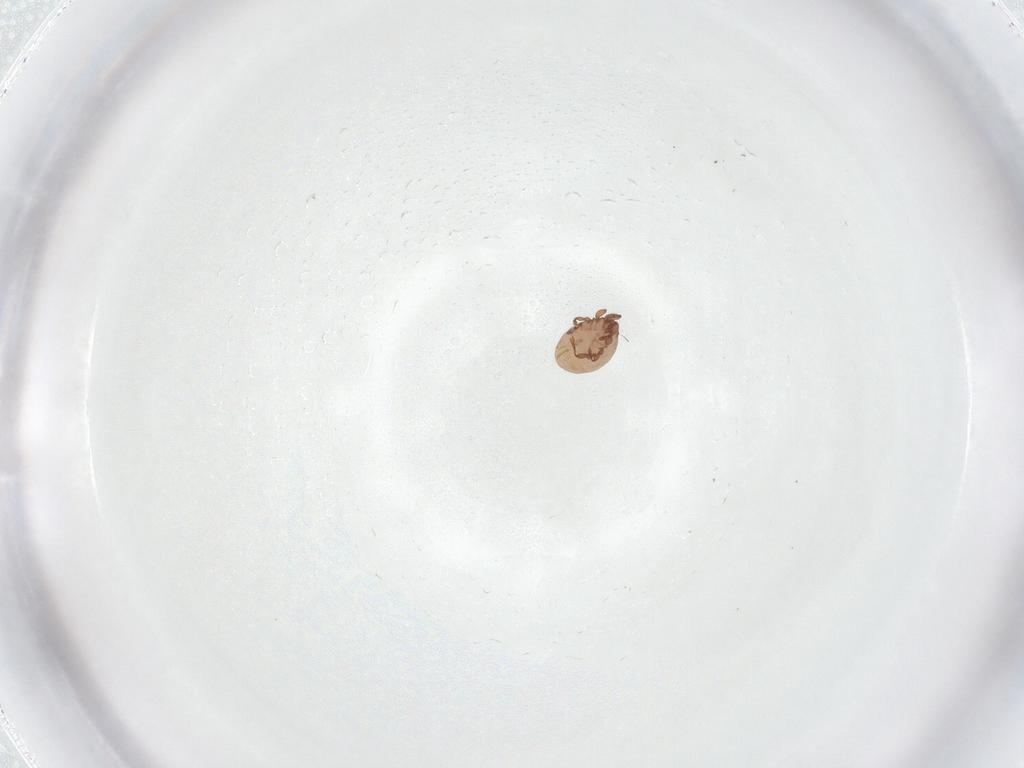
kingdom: Animalia
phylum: Arthropoda
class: Arachnida
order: Sarcoptiformes
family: Eremaeidae
